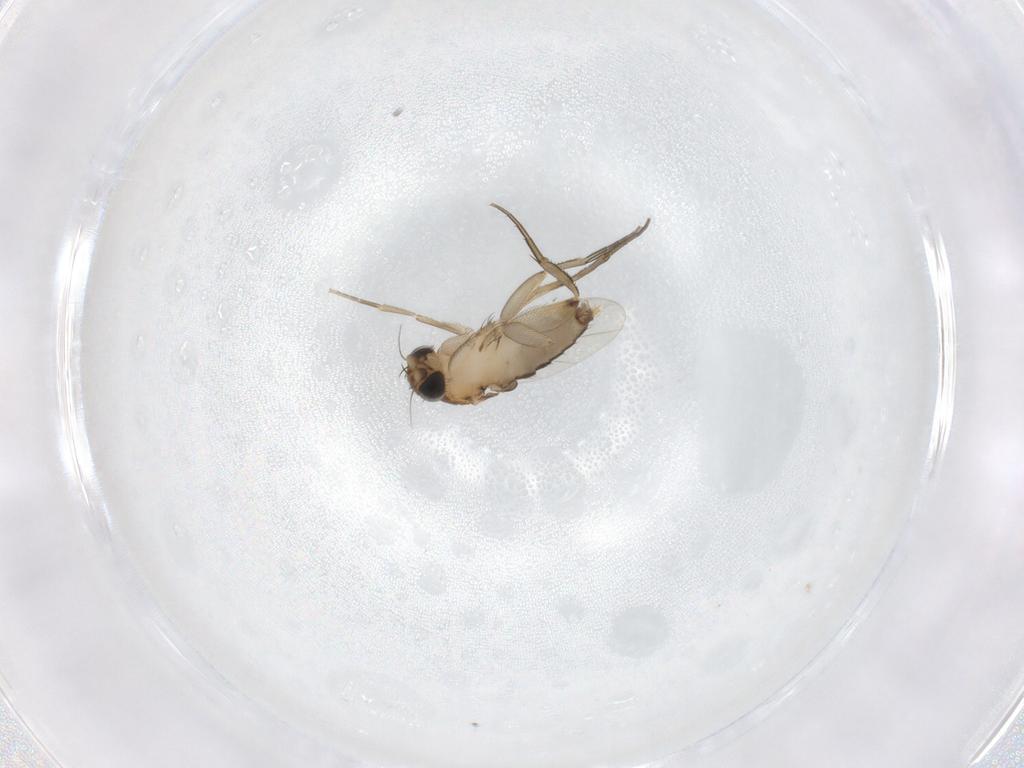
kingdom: Animalia
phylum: Arthropoda
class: Insecta
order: Diptera
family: Phoridae
